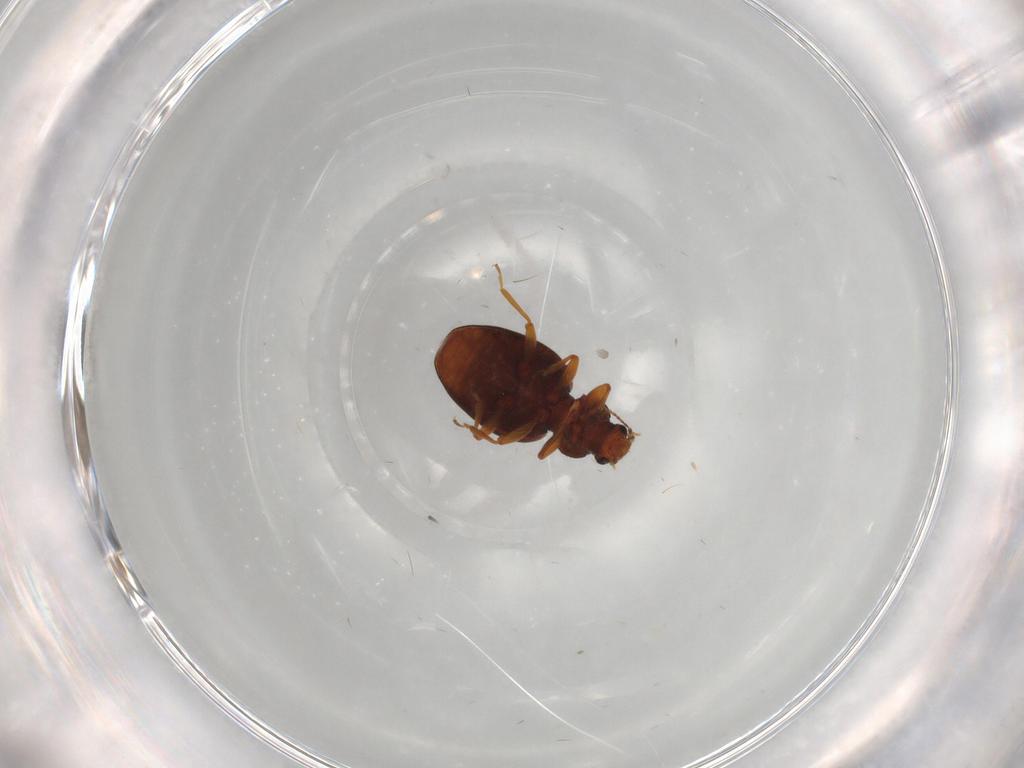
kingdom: Animalia
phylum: Arthropoda
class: Insecta
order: Coleoptera
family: Latridiidae
